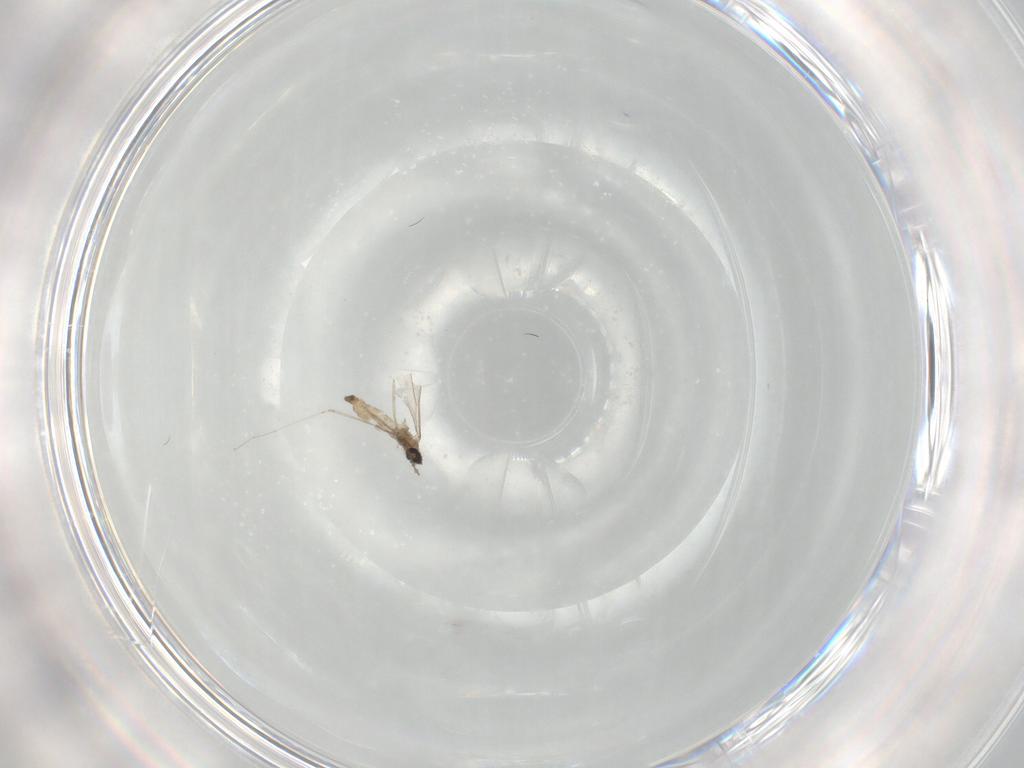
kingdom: Animalia
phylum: Arthropoda
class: Insecta
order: Diptera
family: Cecidomyiidae
